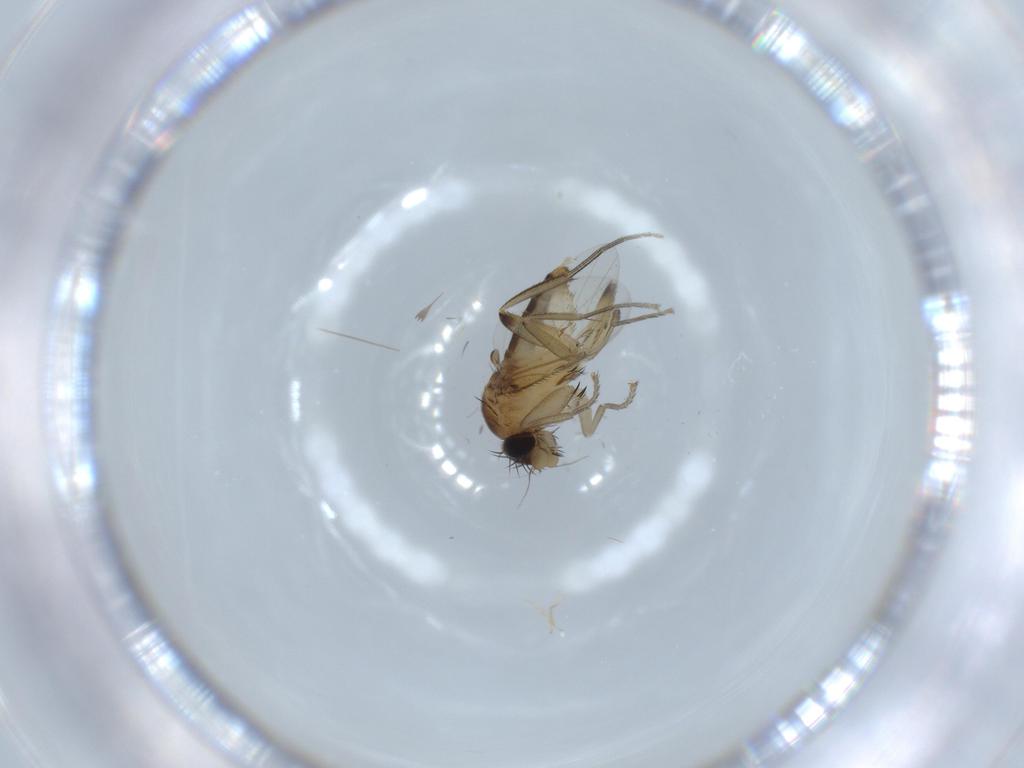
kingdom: Animalia
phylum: Arthropoda
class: Insecta
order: Diptera
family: Phoridae
